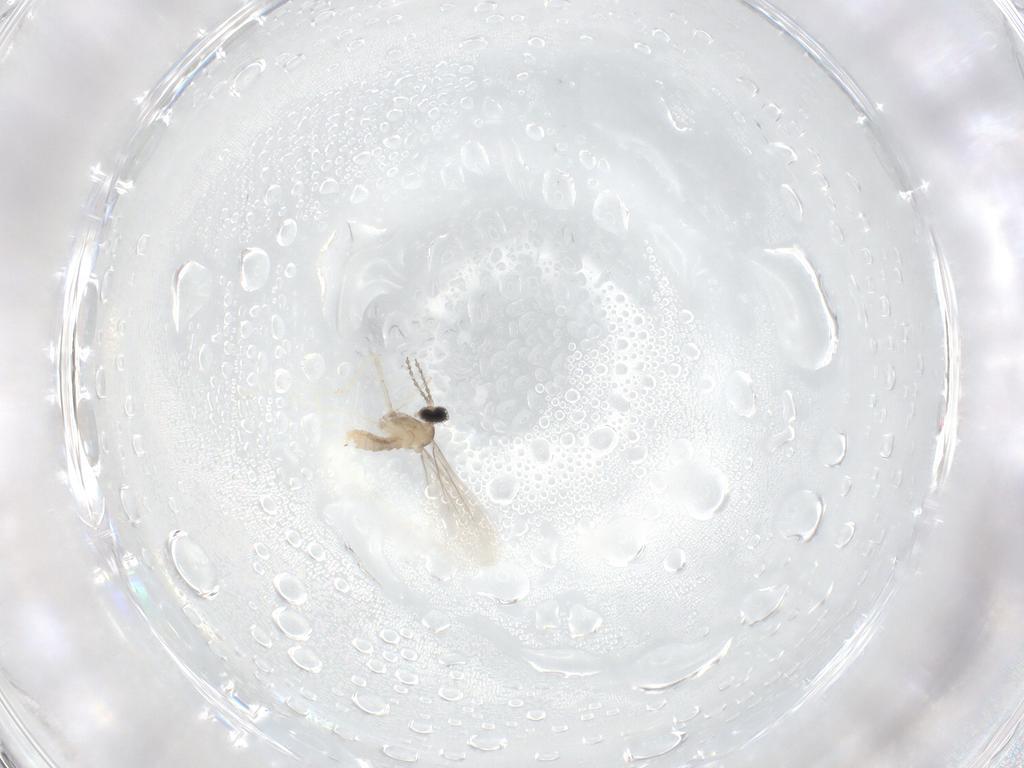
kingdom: Animalia
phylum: Arthropoda
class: Insecta
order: Diptera
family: Cecidomyiidae
